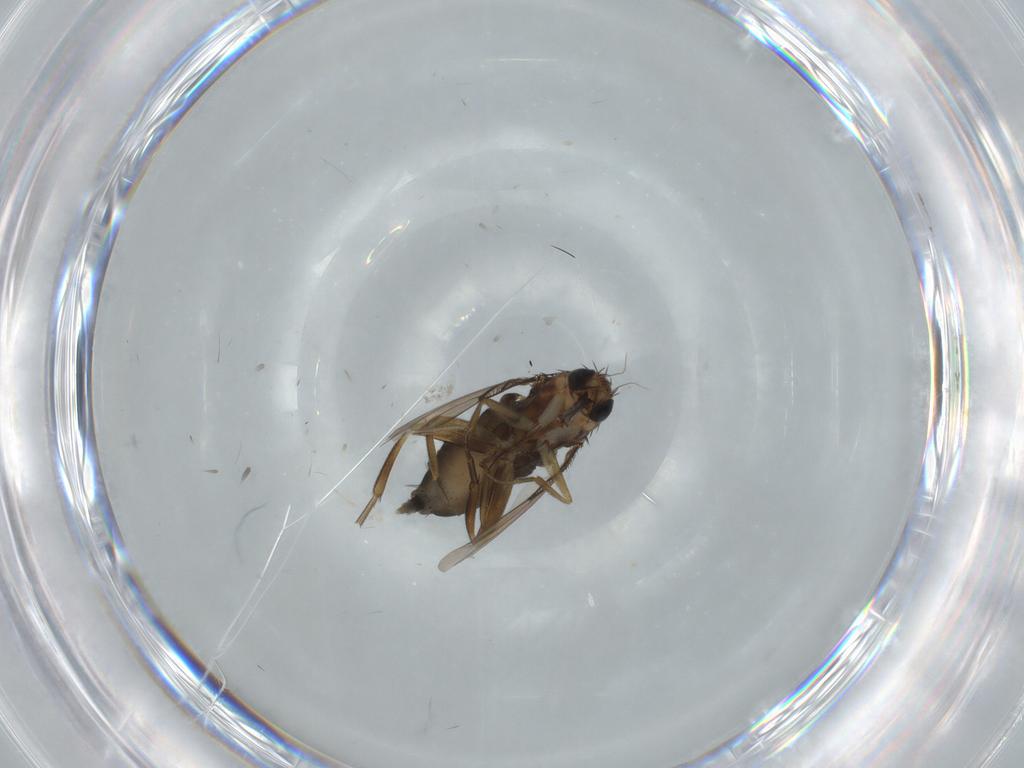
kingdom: Animalia
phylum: Arthropoda
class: Insecta
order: Diptera
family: Phoridae
